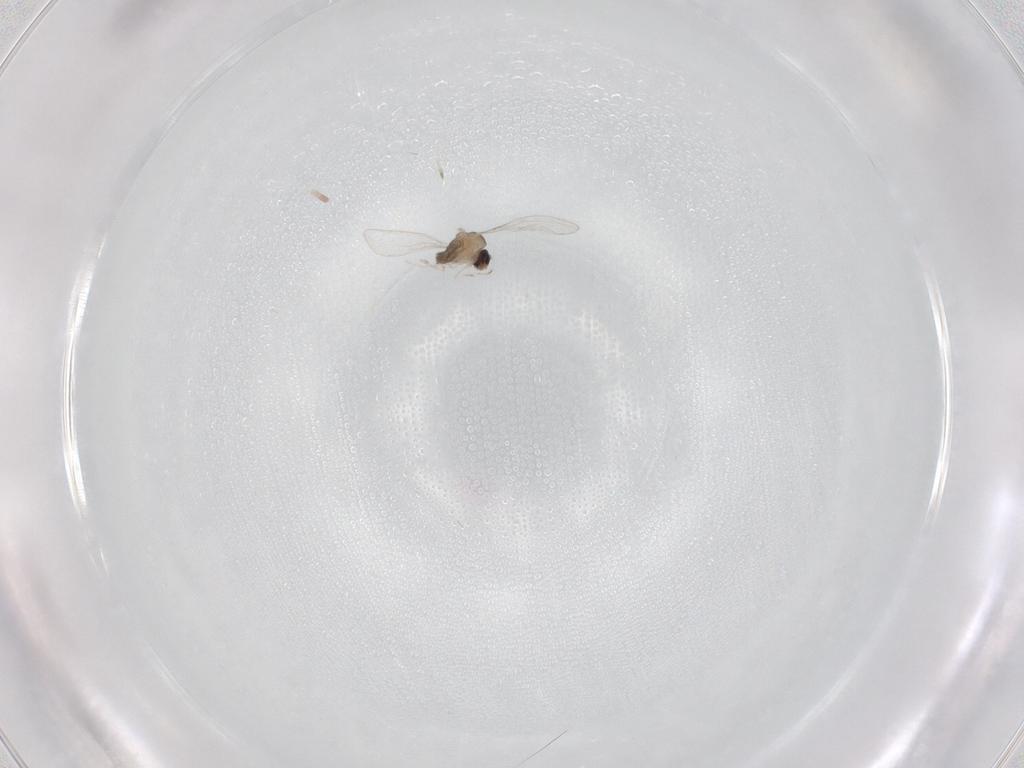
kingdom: Animalia
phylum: Arthropoda
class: Insecta
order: Diptera
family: Cecidomyiidae
